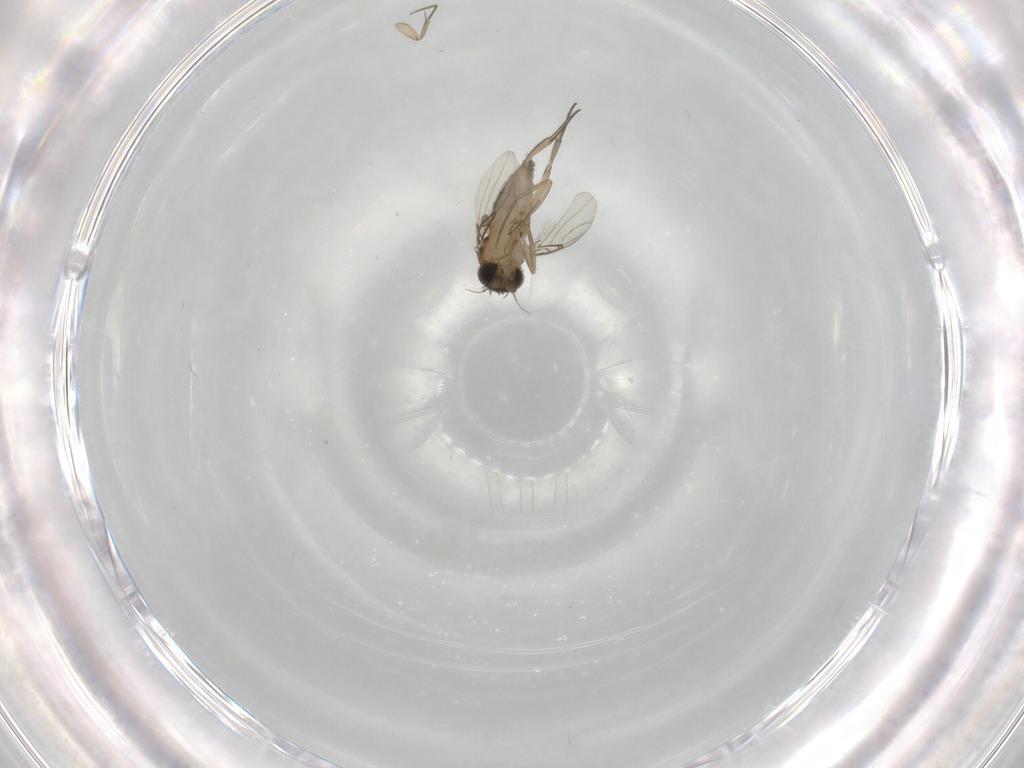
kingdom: Animalia
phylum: Arthropoda
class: Insecta
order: Diptera
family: Phoridae
